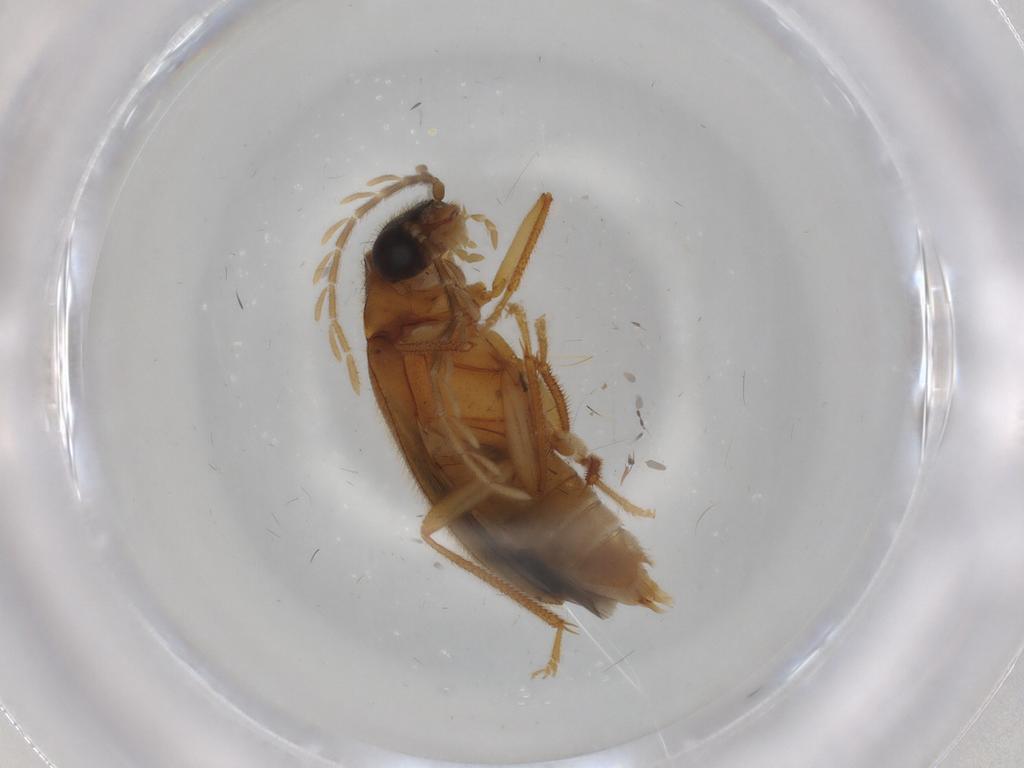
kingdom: Animalia
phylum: Arthropoda
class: Insecta
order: Coleoptera
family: Ptilodactylidae
